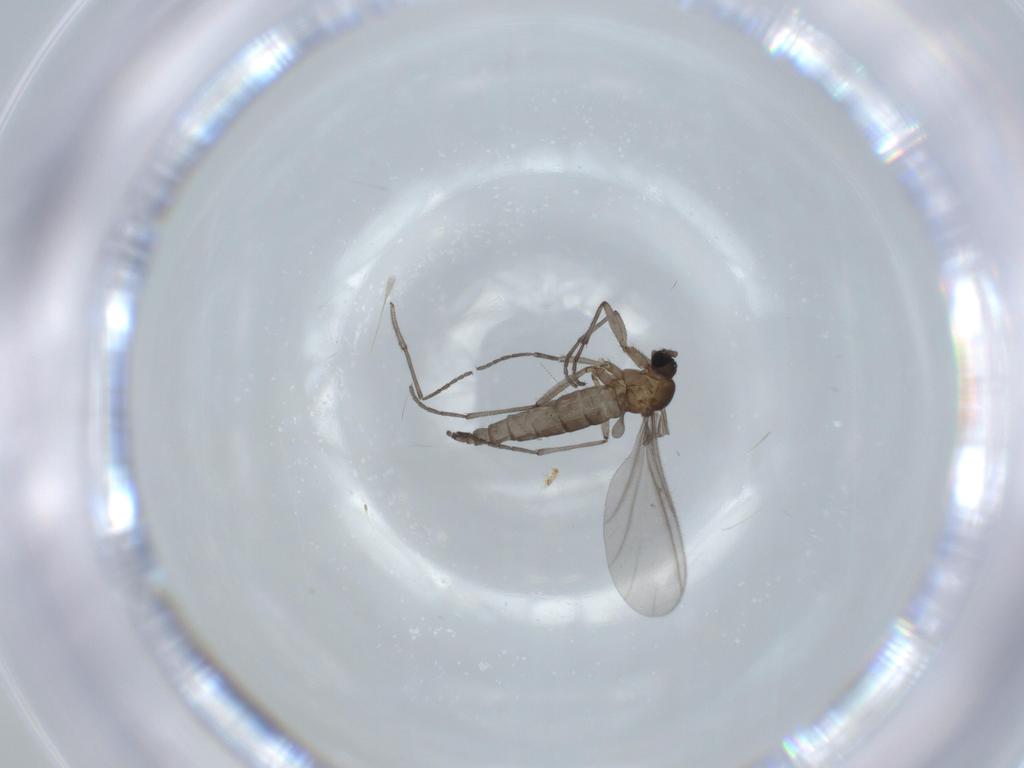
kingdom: Animalia
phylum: Arthropoda
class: Insecta
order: Diptera
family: Sciaridae
